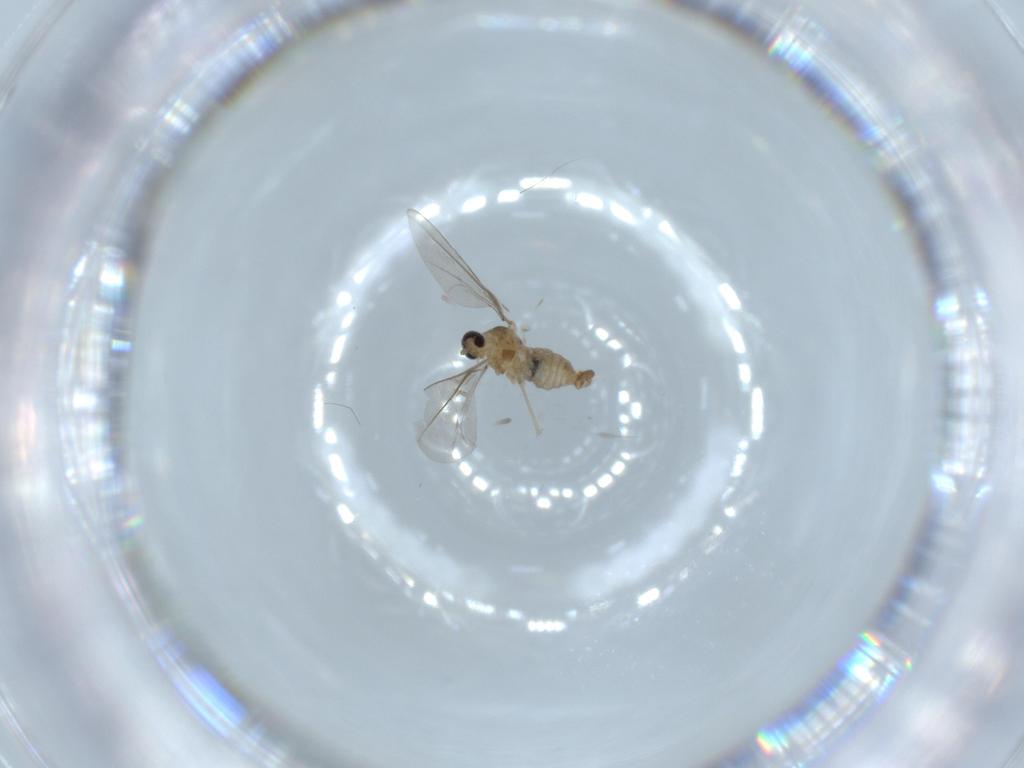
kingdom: Animalia
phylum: Arthropoda
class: Insecta
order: Diptera
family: Cecidomyiidae
